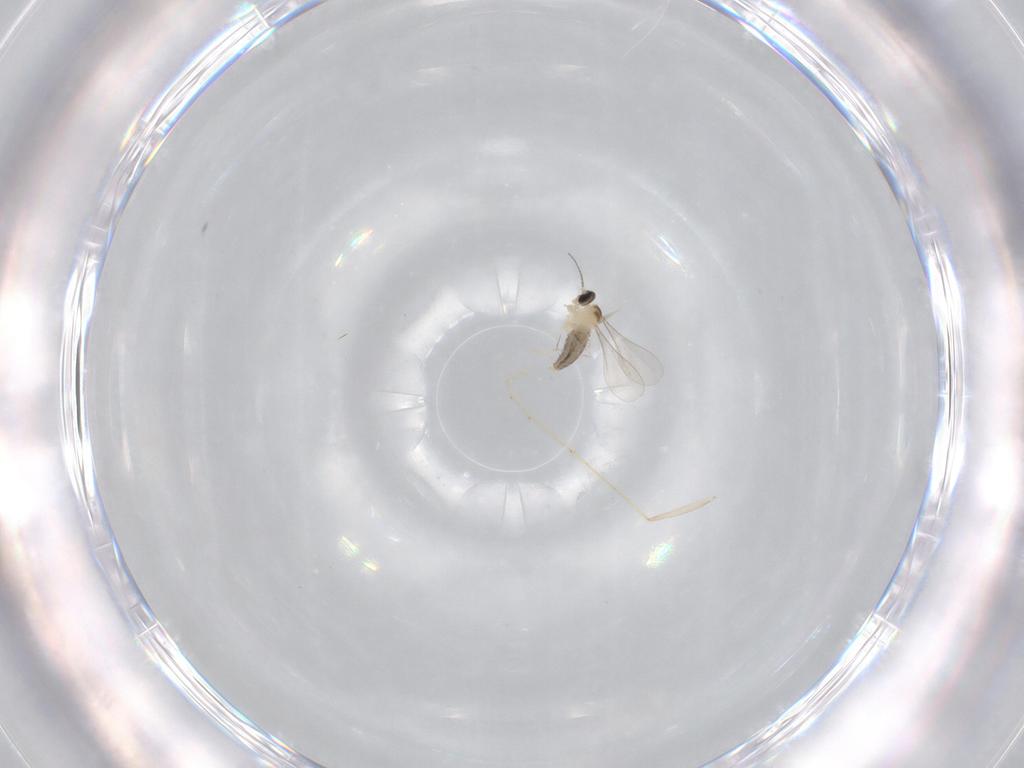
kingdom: Animalia
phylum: Arthropoda
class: Insecta
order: Diptera
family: Cecidomyiidae
